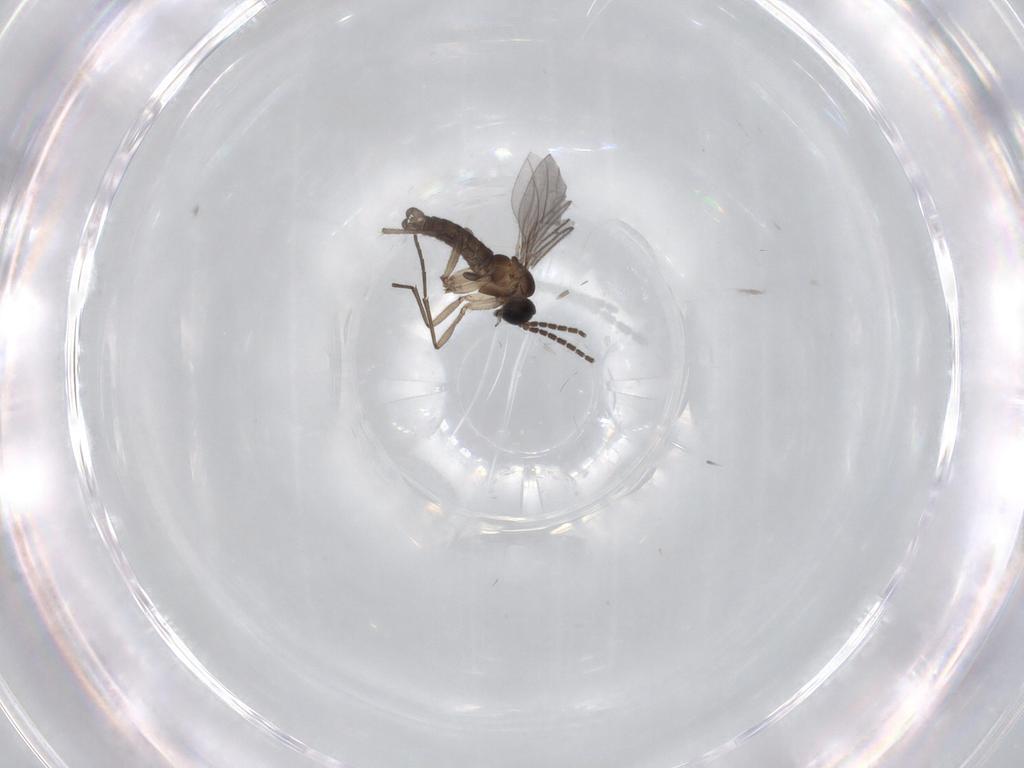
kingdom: Animalia
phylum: Arthropoda
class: Insecta
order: Diptera
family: Sciaridae
